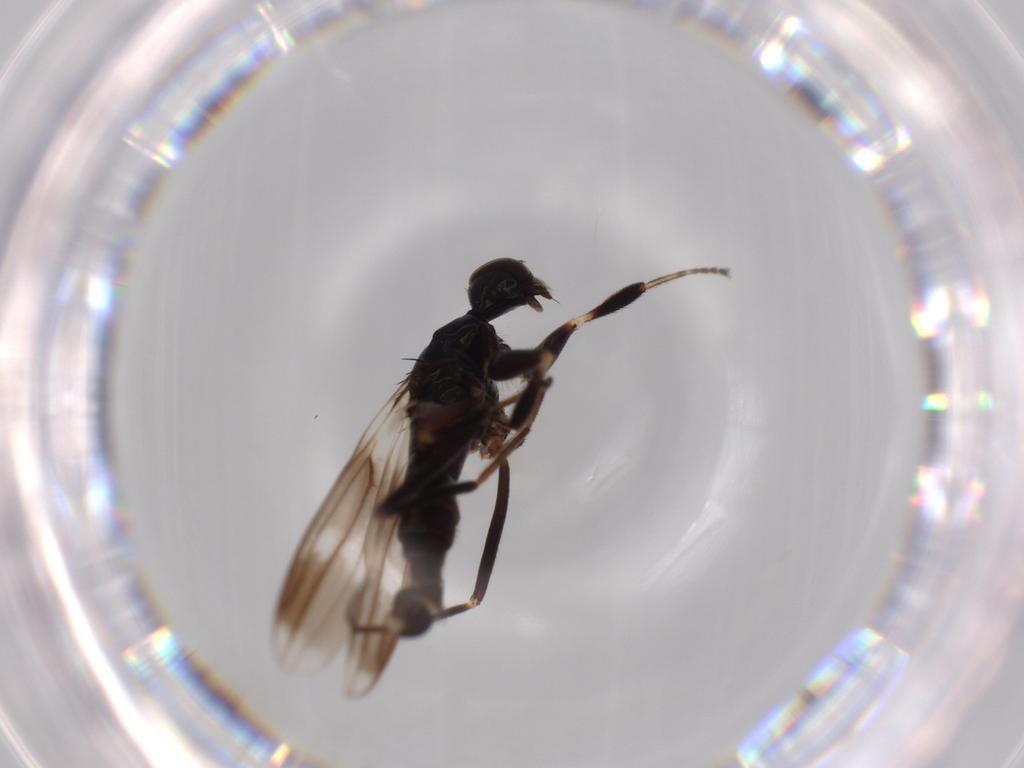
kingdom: Animalia
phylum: Arthropoda
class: Insecta
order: Diptera
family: Hybotidae
